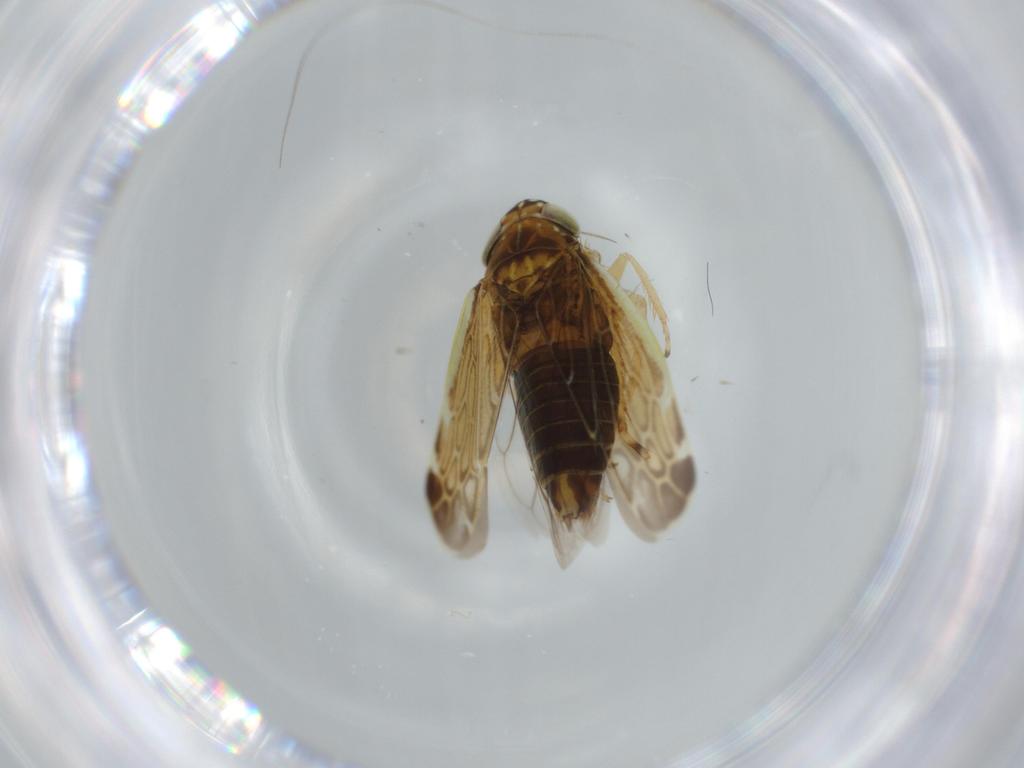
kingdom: Animalia
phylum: Arthropoda
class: Insecta
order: Hemiptera
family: Cicadellidae
